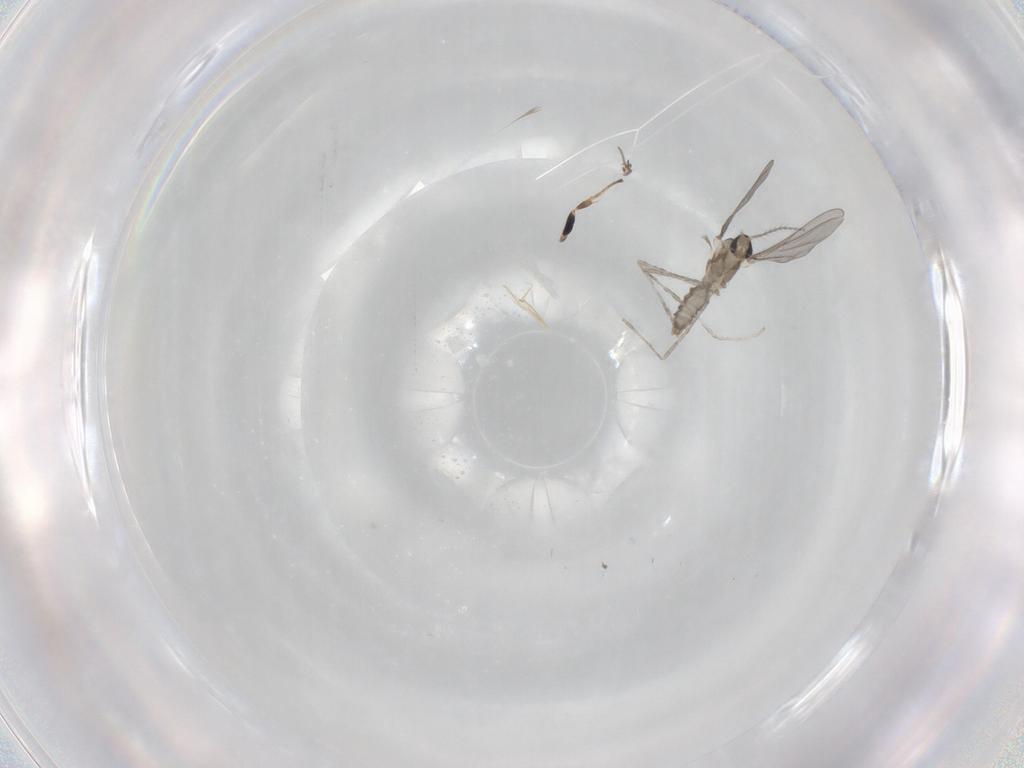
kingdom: Animalia
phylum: Arthropoda
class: Insecta
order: Diptera
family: Cecidomyiidae
